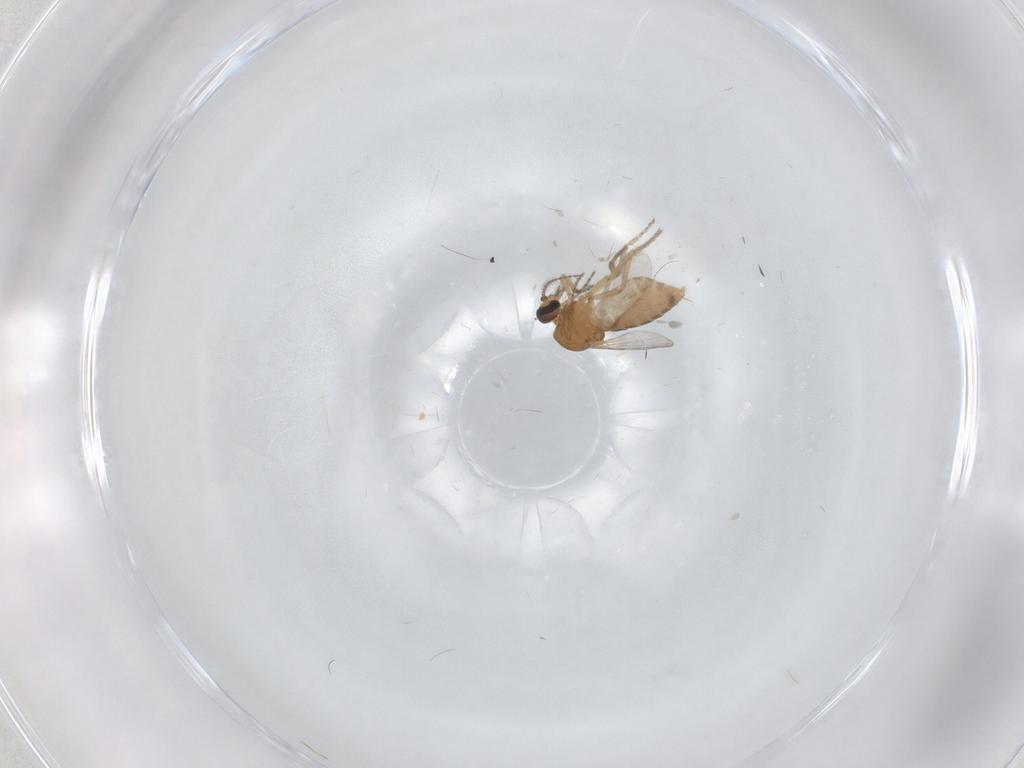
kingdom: Animalia
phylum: Arthropoda
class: Insecta
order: Diptera
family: Ceratopogonidae
